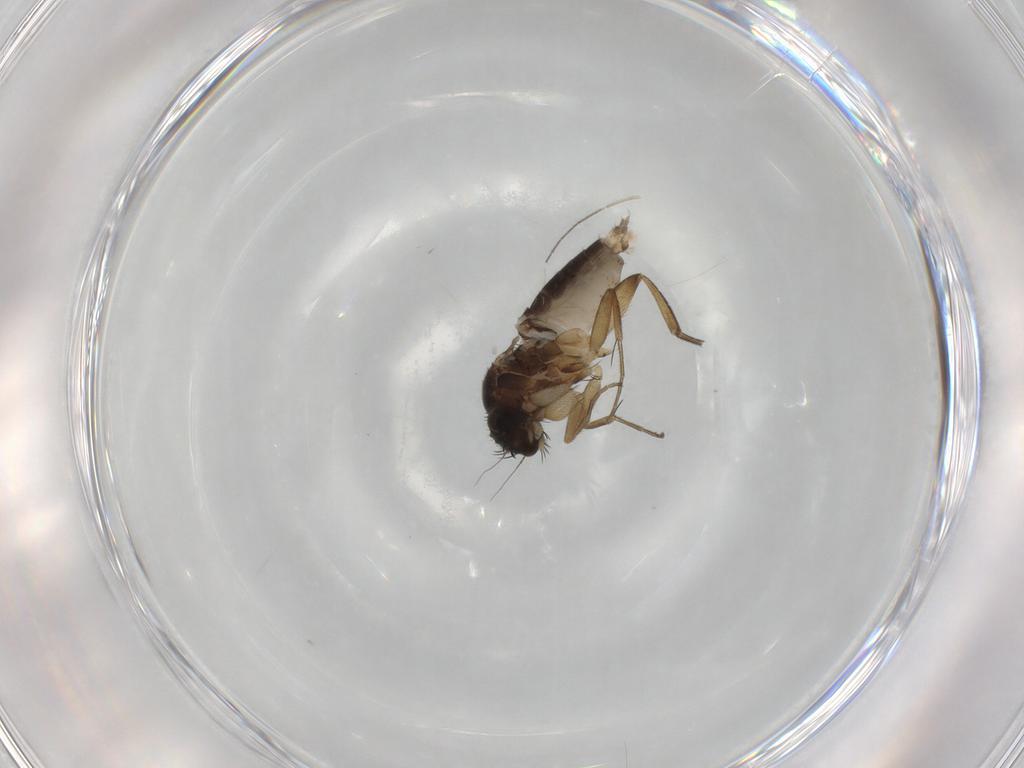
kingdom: Animalia
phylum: Arthropoda
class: Insecta
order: Diptera
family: Phoridae
